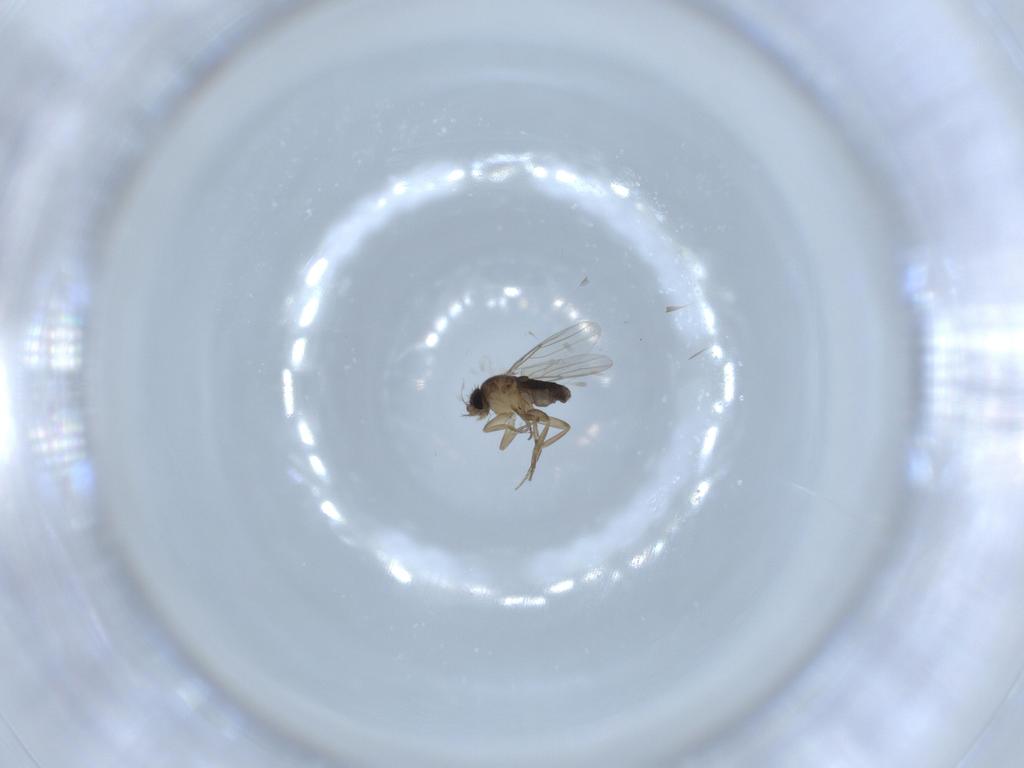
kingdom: Animalia
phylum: Arthropoda
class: Insecta
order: Diptera
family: Phoridae
